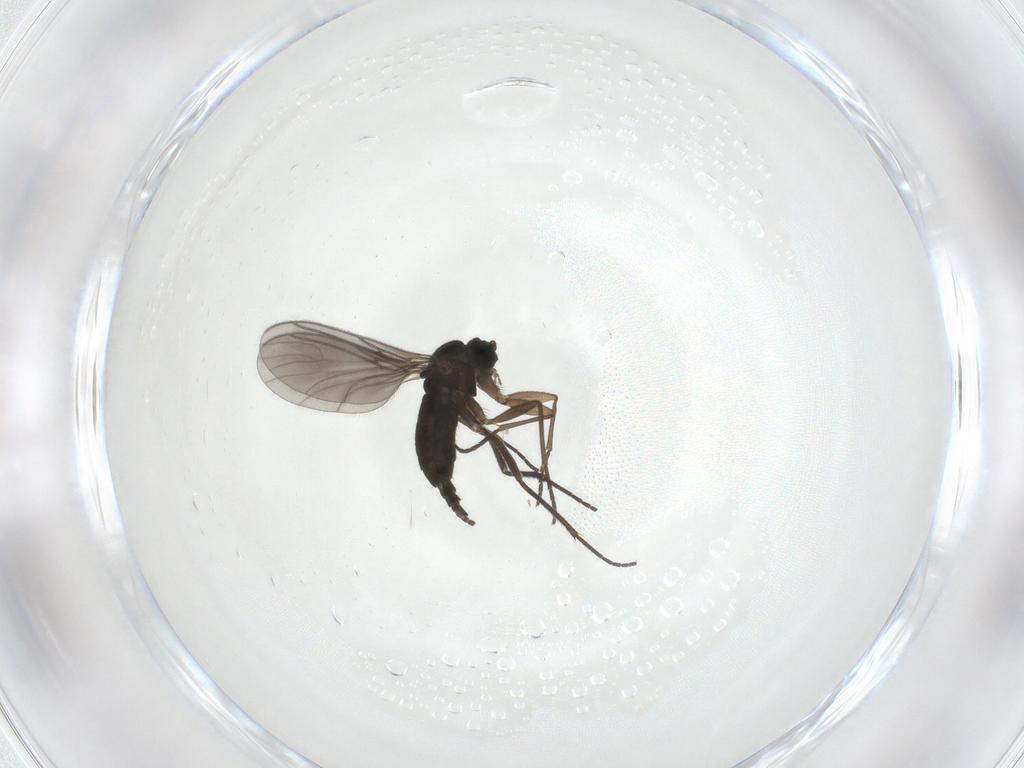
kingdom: Animalia
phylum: Arthropoda
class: Insecta
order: Diptera
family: Sciaridae
